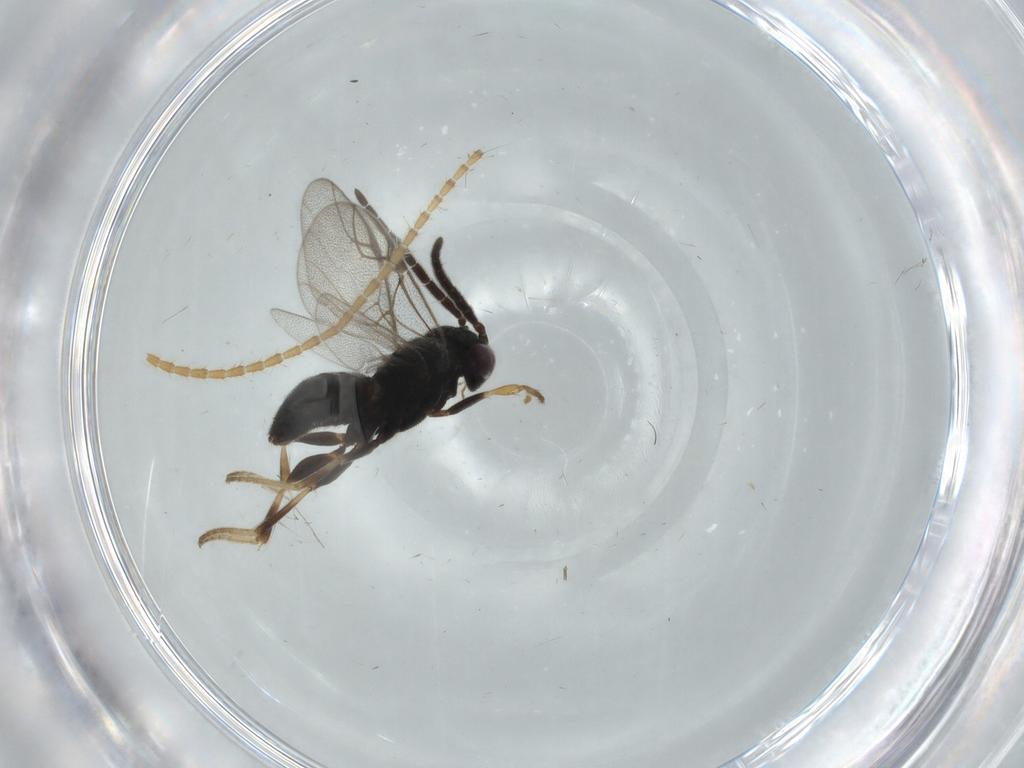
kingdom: Animalia
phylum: Arthropoda
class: Insecta
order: Hymenoptera
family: Dryinidae
